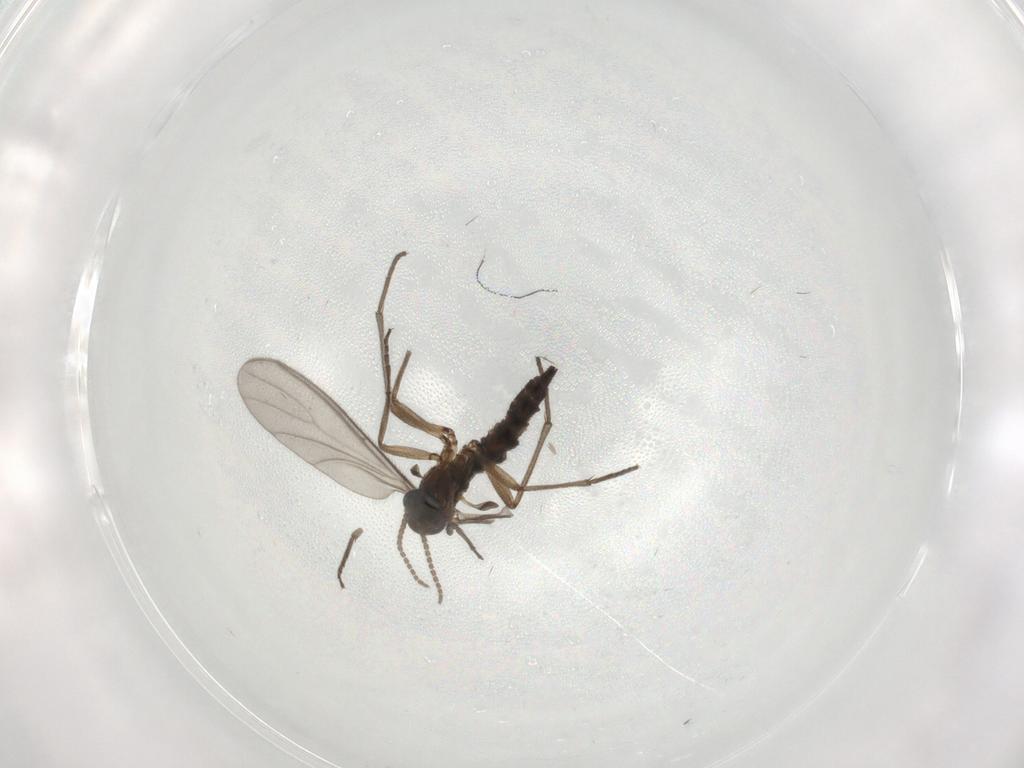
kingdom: Animalia
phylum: Arthropoda
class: Insecta
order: Diptera
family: Sciaridae
